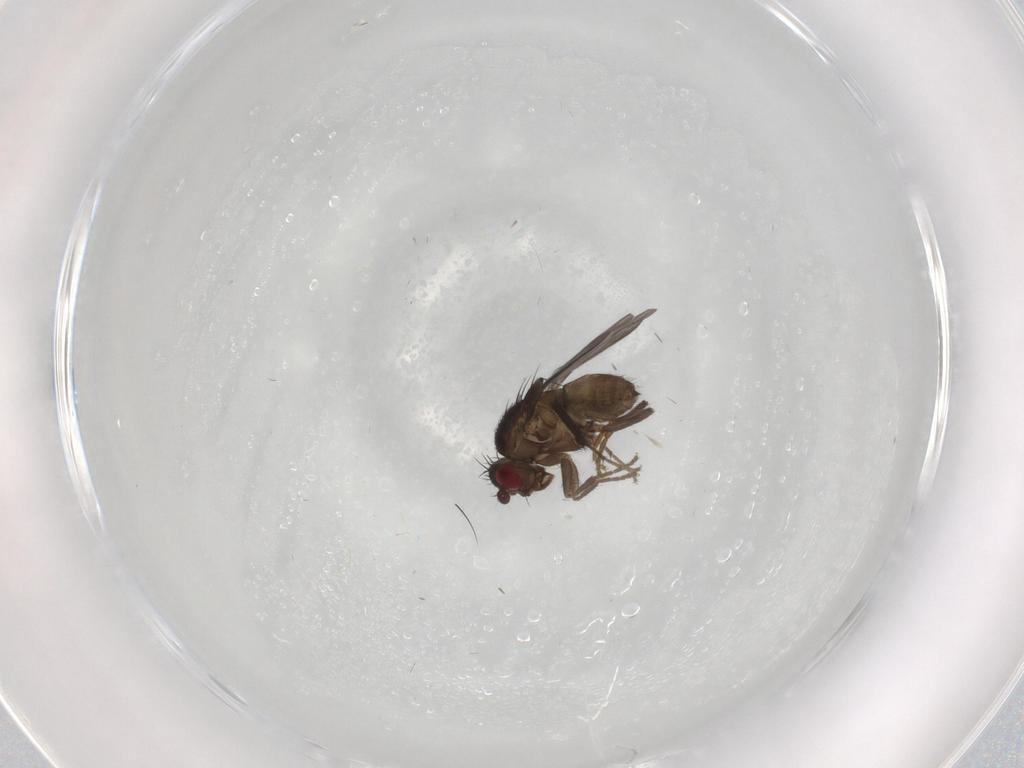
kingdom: Animalia
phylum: Arthropoda
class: Insecta
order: Diptera
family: Sphaeroceridae
